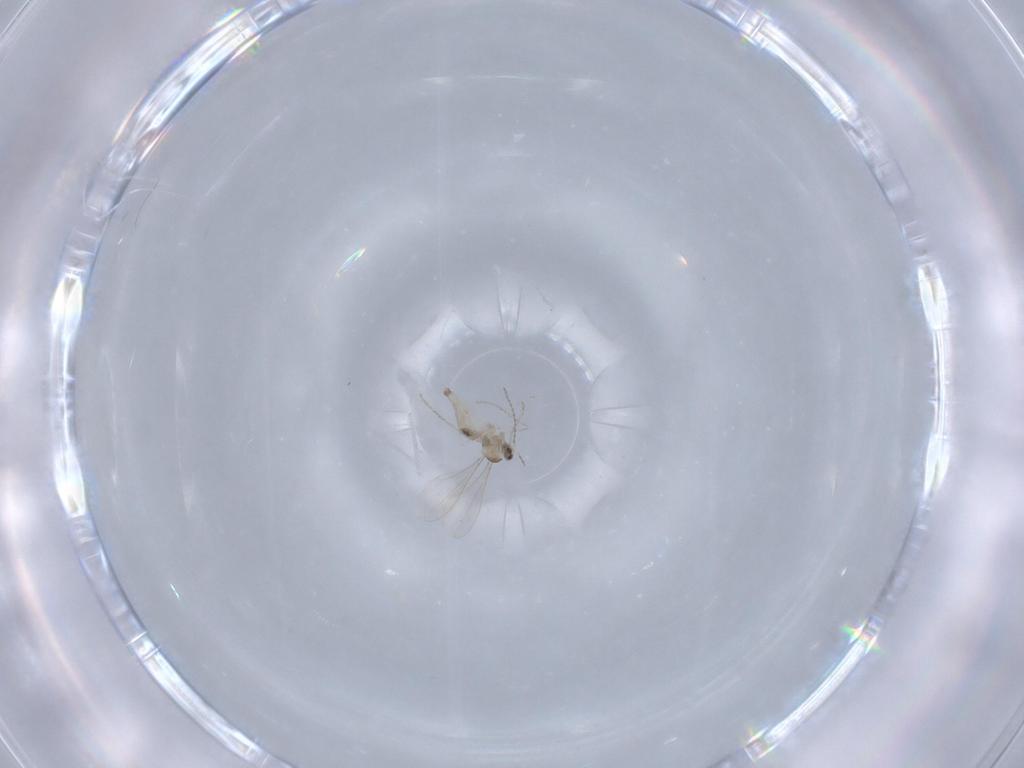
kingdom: Animalia
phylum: Arthropoda
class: Insecta
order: Diptera
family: Cecidomyiidae
